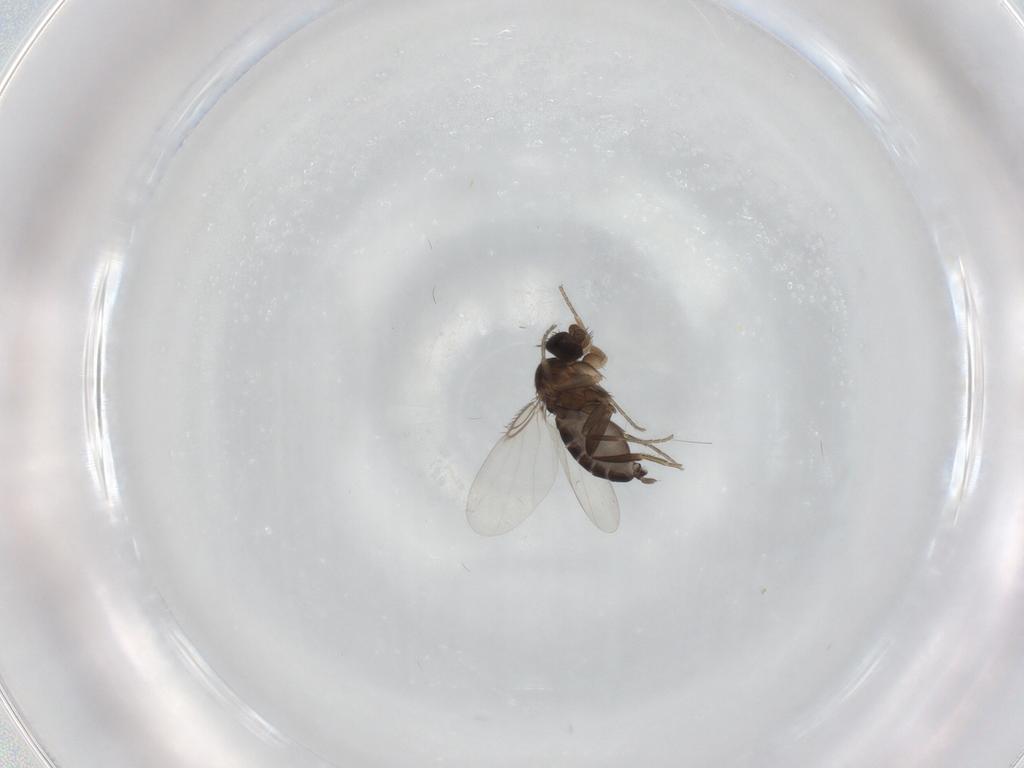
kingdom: Animalia
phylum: Arthropoda
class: Insecta
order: Diptera
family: Phoridae
